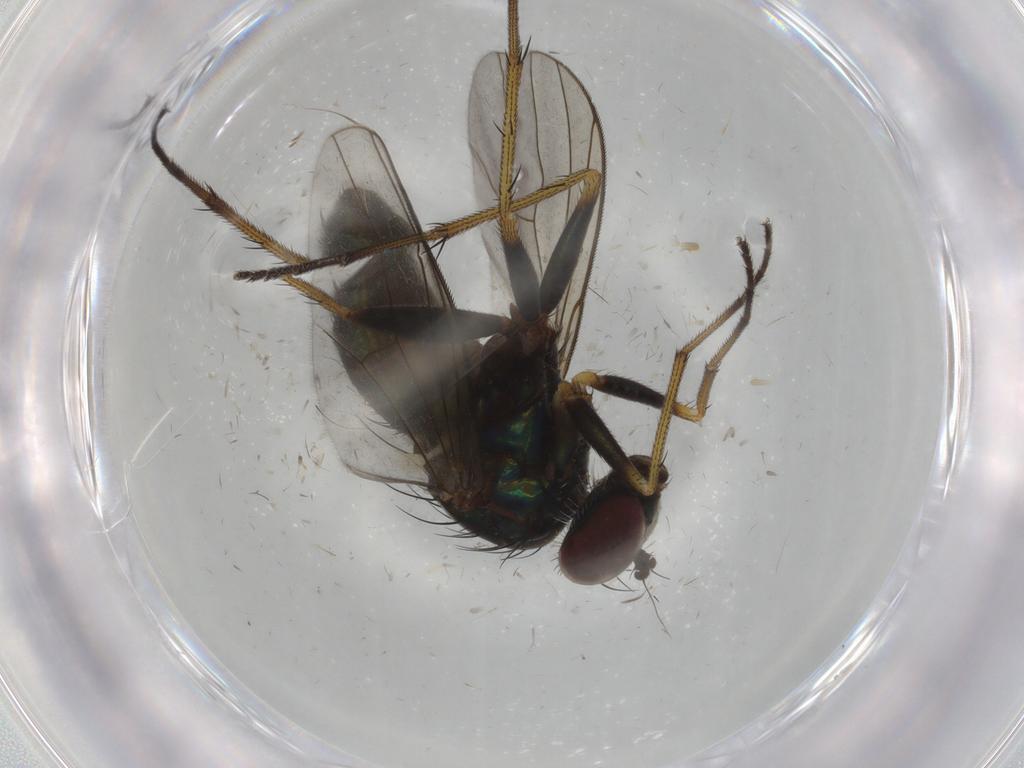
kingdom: Animalia
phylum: Arthropoda
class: Insecta
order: Diptera
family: Dolichopodidae
